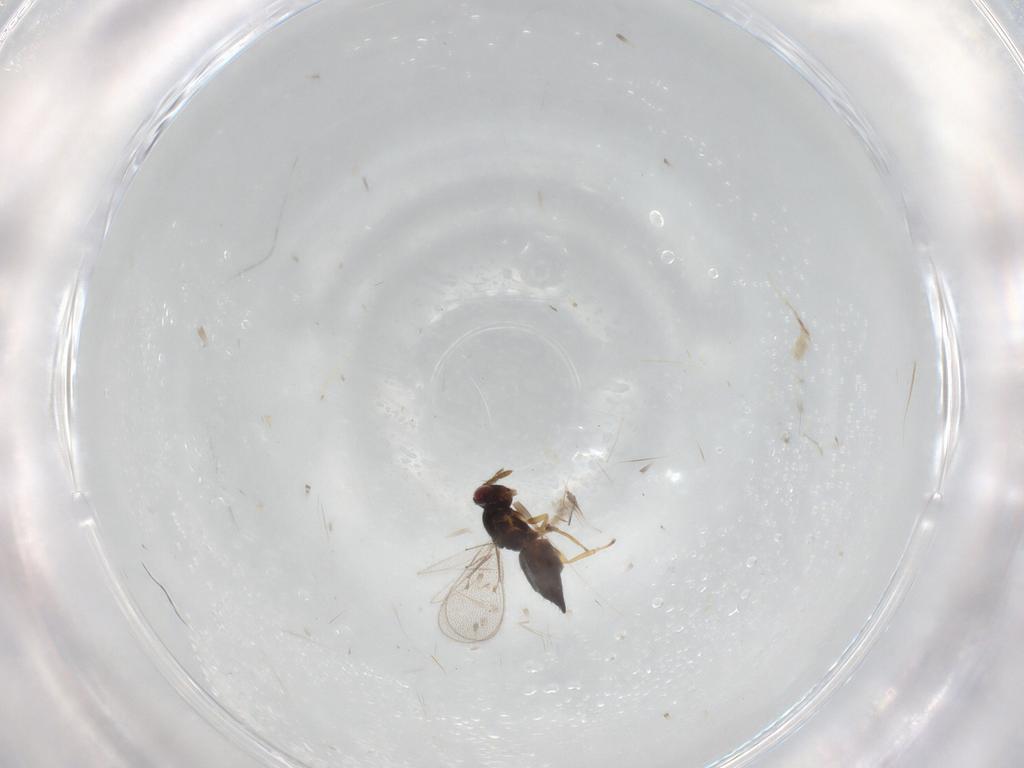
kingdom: Animalia
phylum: Arthropoda
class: Insecta
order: Hymenoptera
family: Eulophidae
